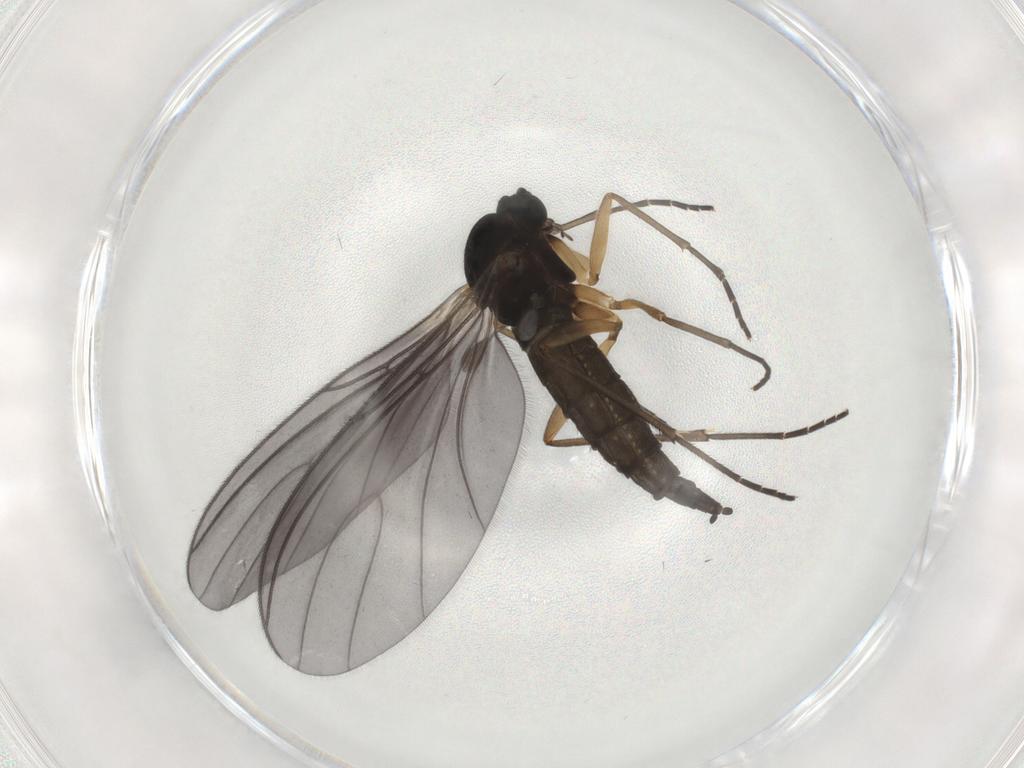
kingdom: Animalia
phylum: Arthropoda
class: Insecta
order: Diptera
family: Sciaridae
